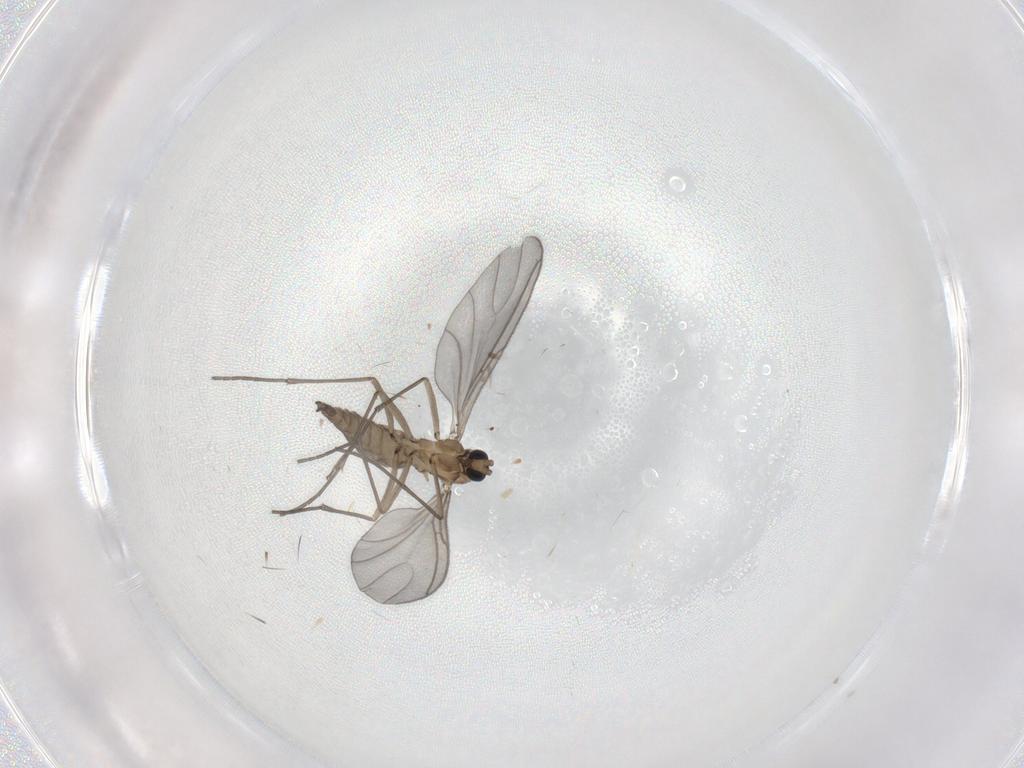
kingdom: Animalia
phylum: Arthropoda
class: Insecta
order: Diptera
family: Sciaridae
